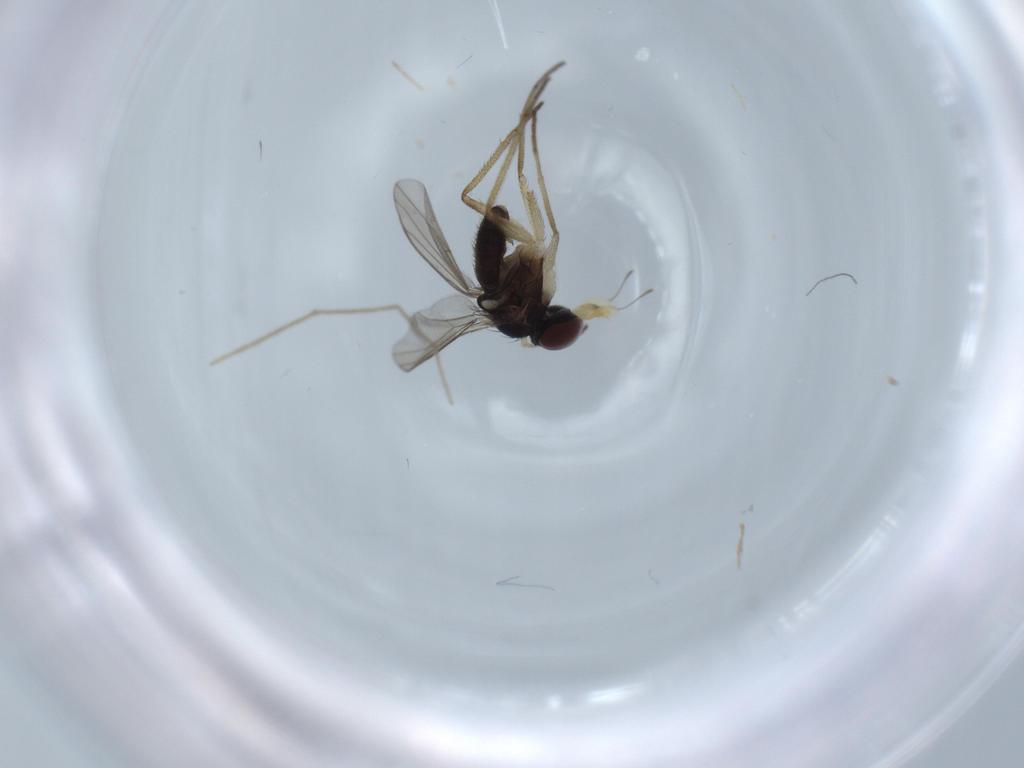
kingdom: Animalia
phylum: Arthropoda
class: Insecta
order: Diptera
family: Dolichopodidae
